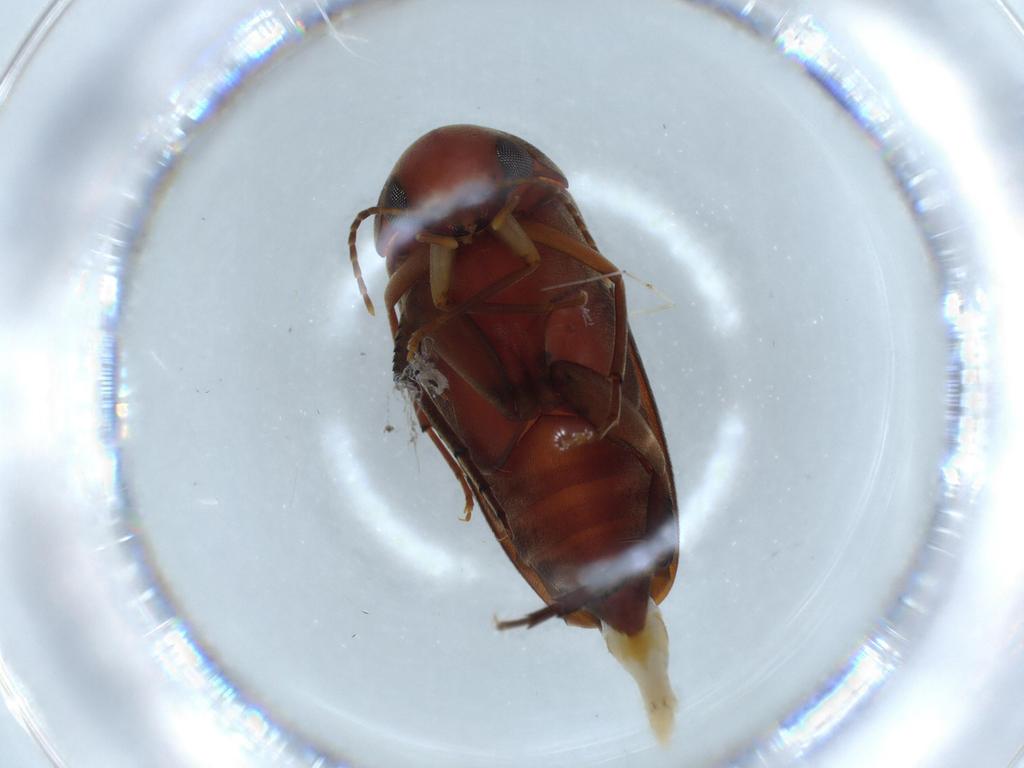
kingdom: Animalia
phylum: Arthropoda
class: Insecta
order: Coleoptera
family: Mordellidae
